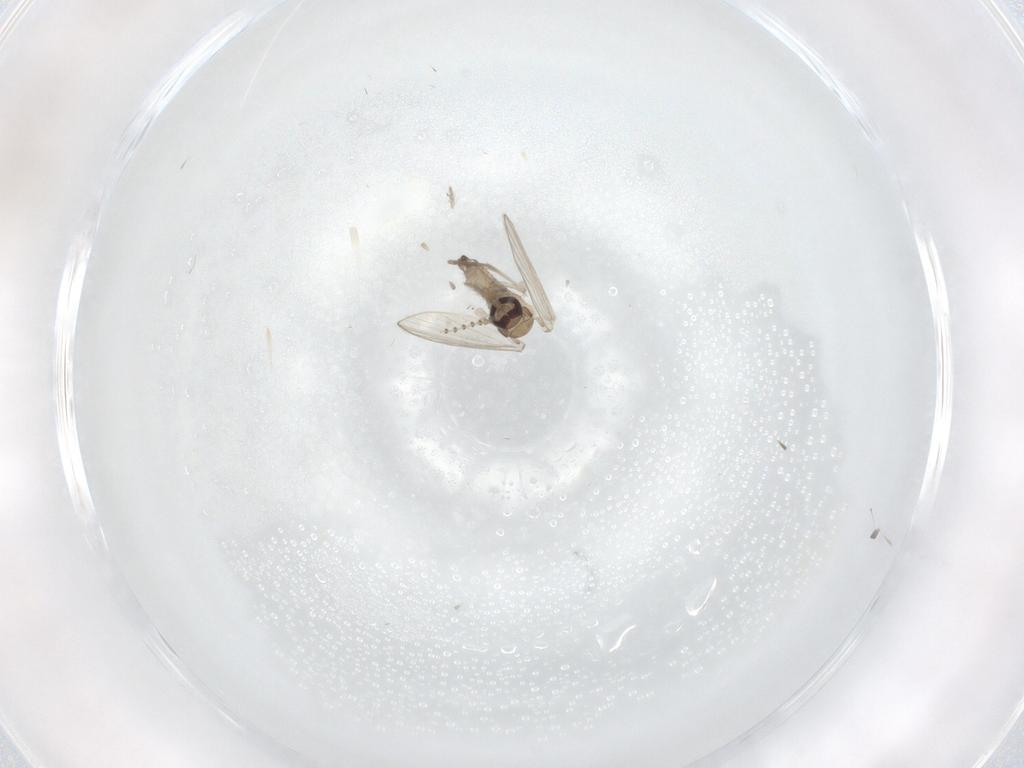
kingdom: Animalia
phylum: Arthropoda
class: Insecta
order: Diptera
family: Psychodidae
